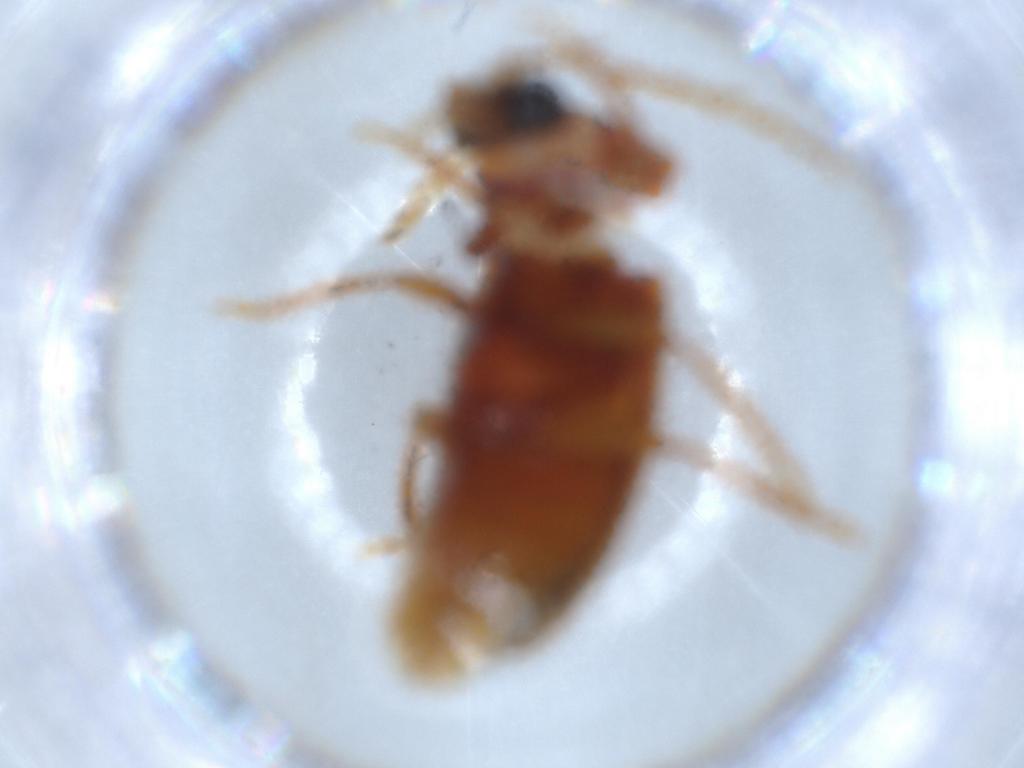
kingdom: Animalia
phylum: Arthropoda
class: Insecta
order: Coleoptera
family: Ptilodactylidae
